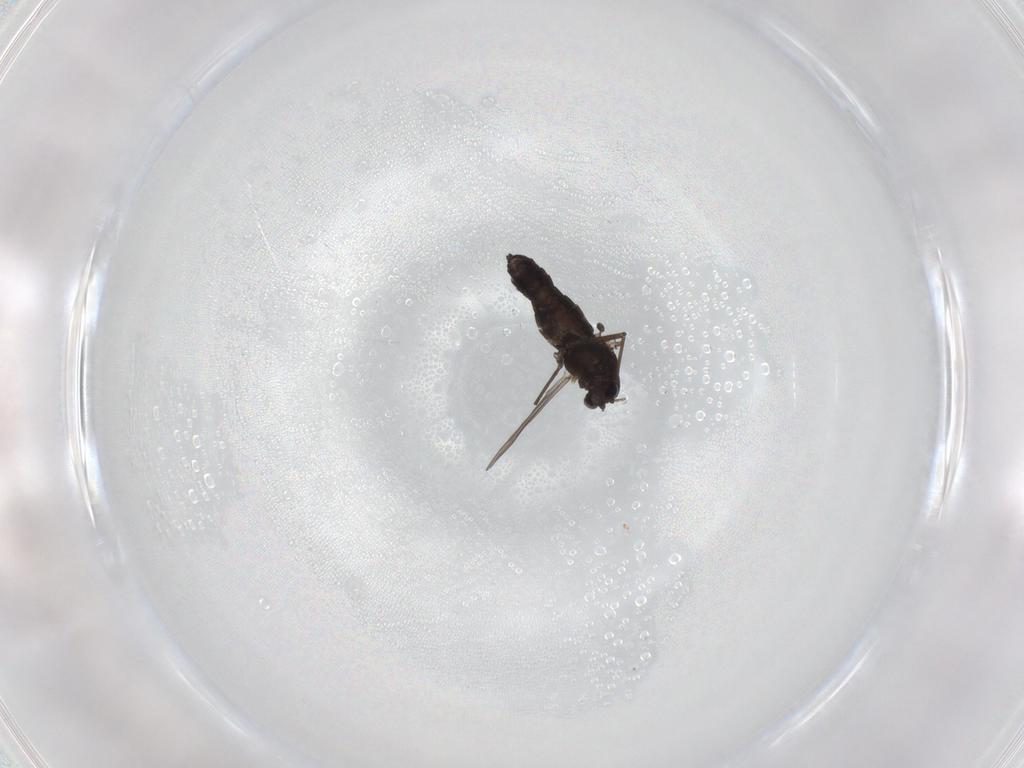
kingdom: Animalia
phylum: Arthropoda
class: Insecta
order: Diptera
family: Chironomidae
